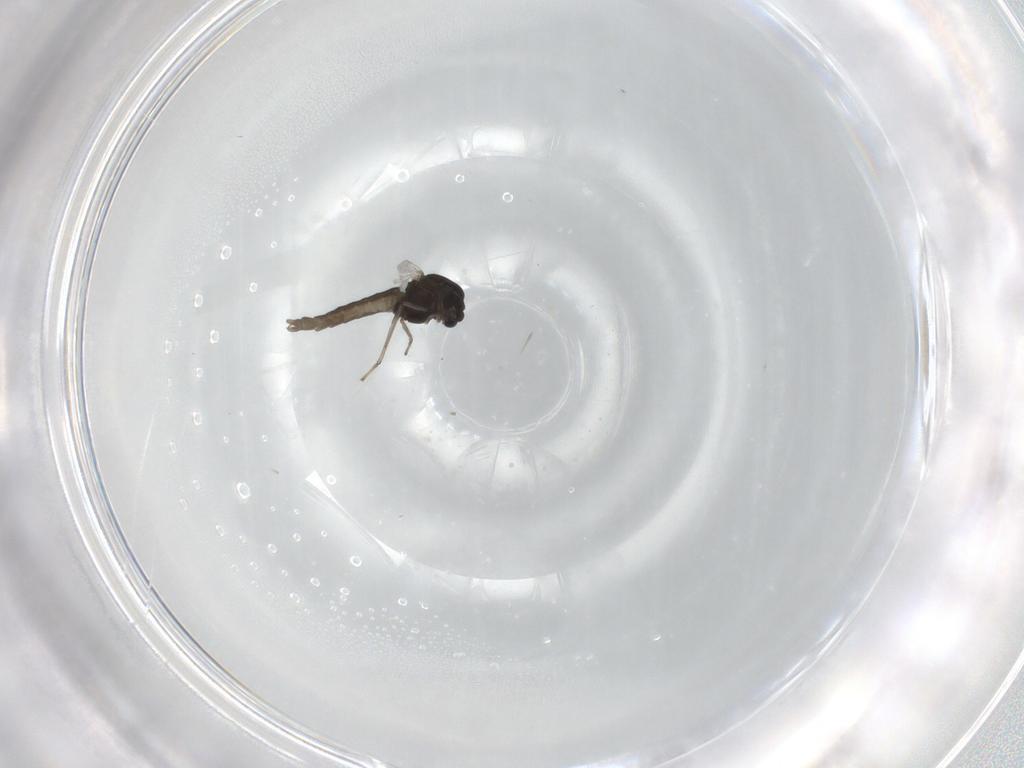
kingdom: Animalia
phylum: Arthropoda
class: Insecta
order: Diptera
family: Chironomidae
